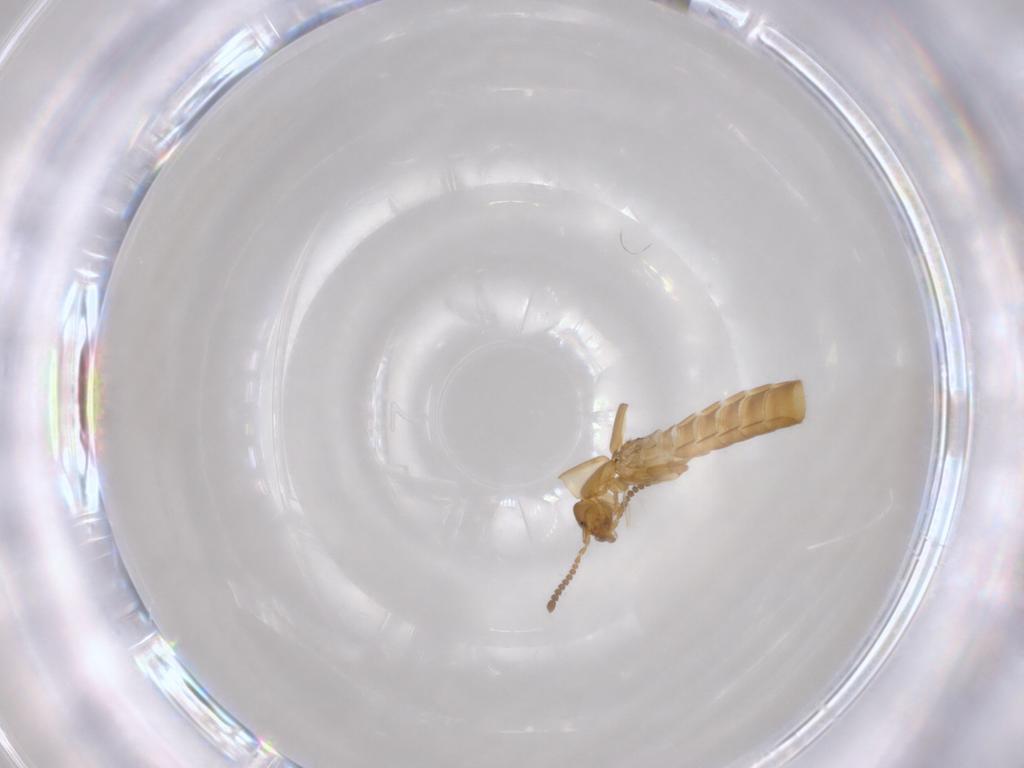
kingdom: Animalia
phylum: Arthropoda
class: Insecta
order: Coleoptera
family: Staphylinidae
